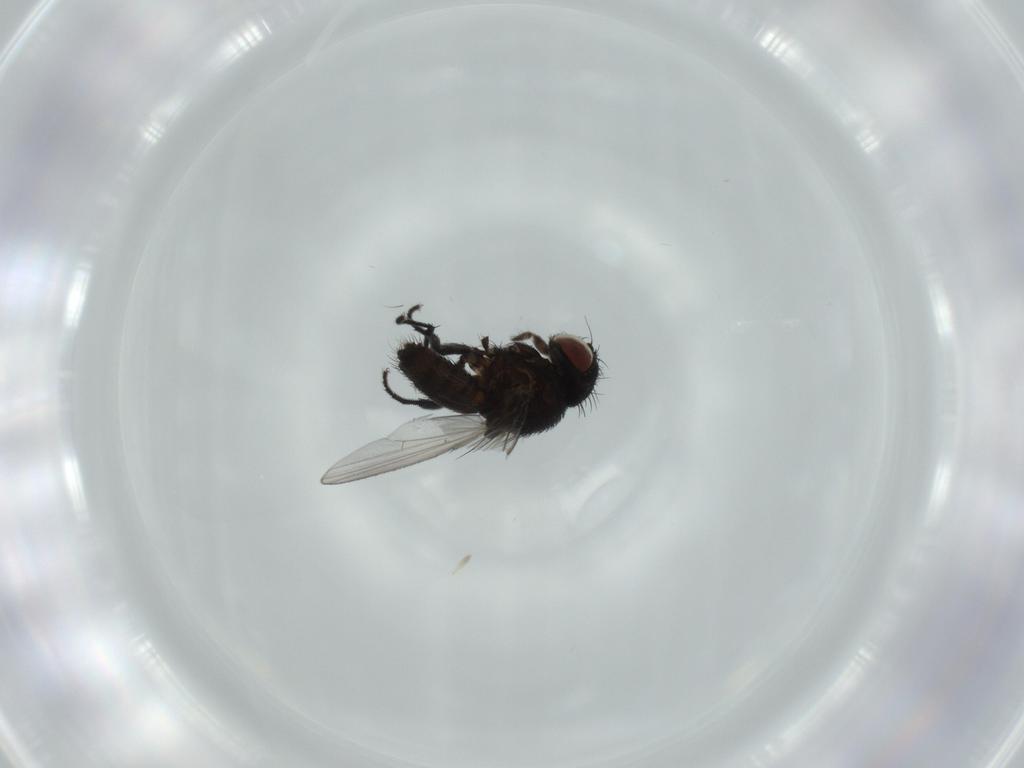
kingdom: Animalia
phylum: Arthropoda
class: Insecta
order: Diptera
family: Milichiidae
